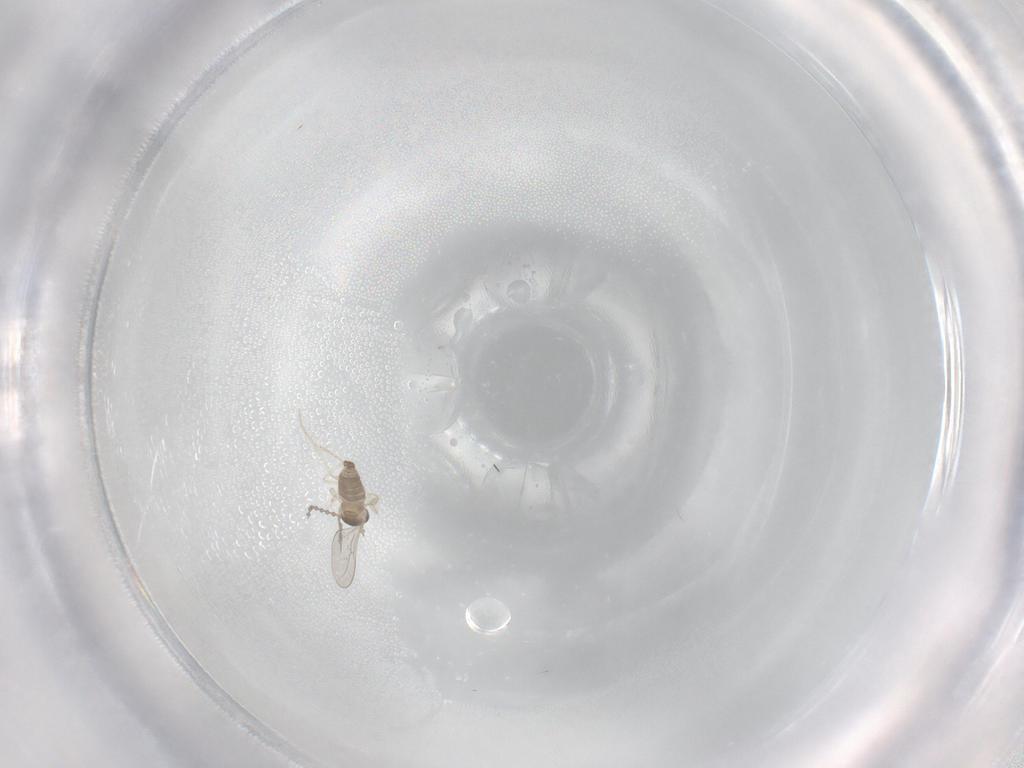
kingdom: Animalia
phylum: Arthropoda
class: Insecta
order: Diptera
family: Cecidomyiidae
